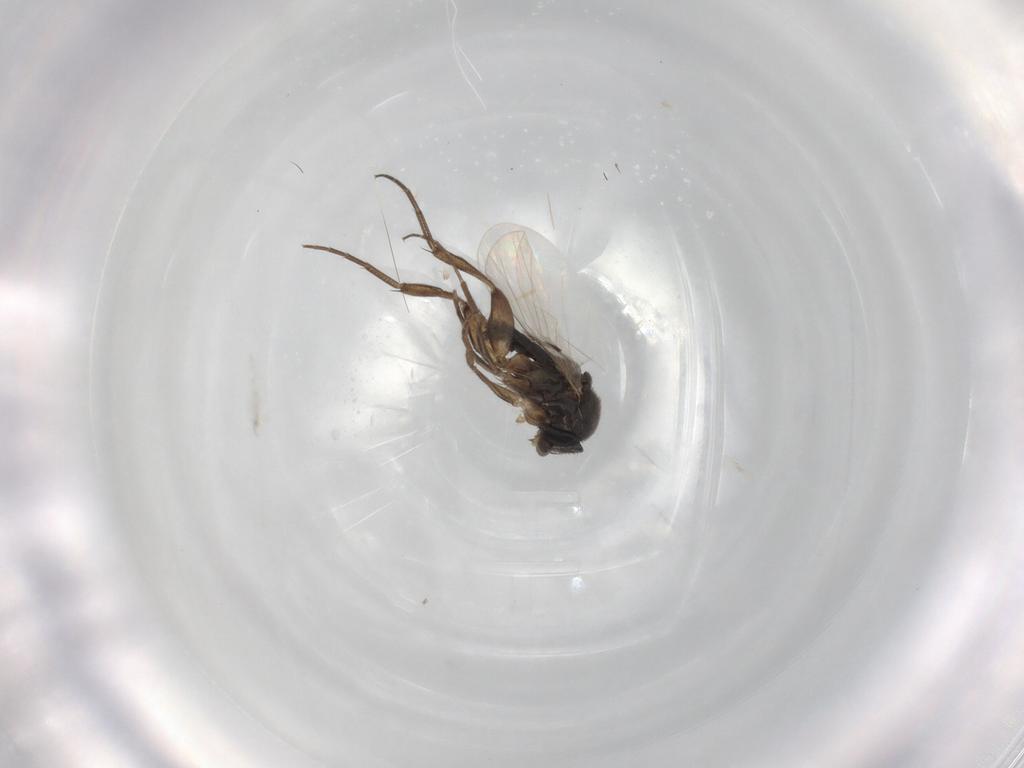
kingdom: Animalia
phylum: Arthropoda
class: Insecta
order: Diptera
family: Phoridae
